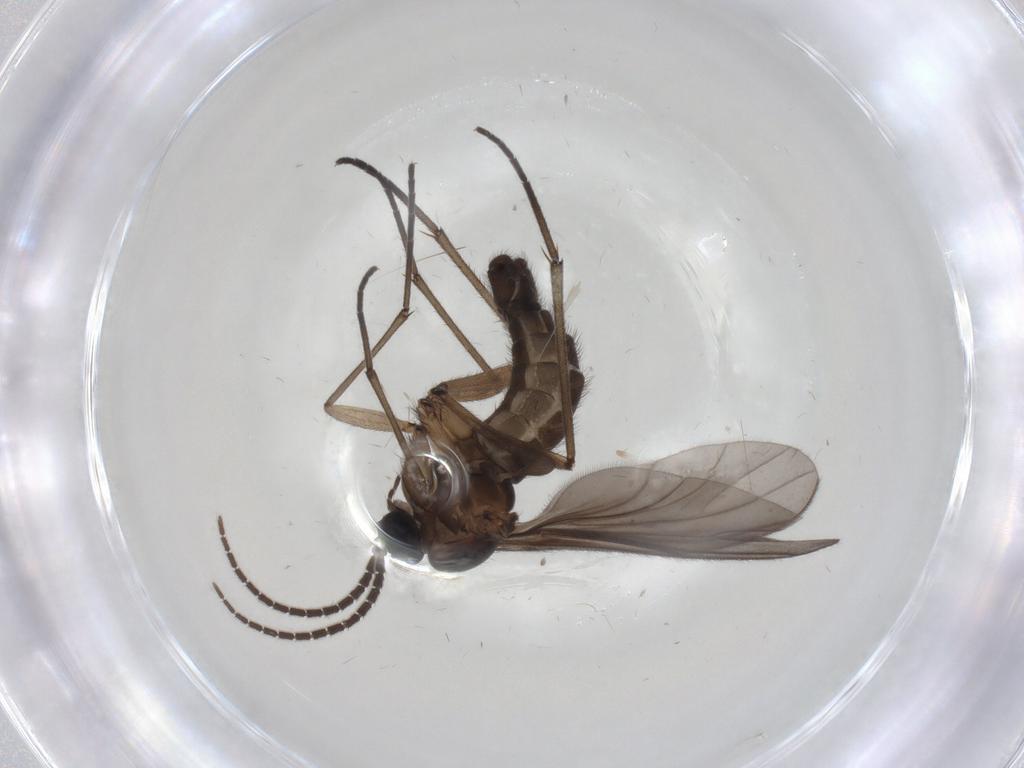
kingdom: Animalia
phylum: Arthropoda
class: Insecta
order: Diptera
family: Sciaridae
